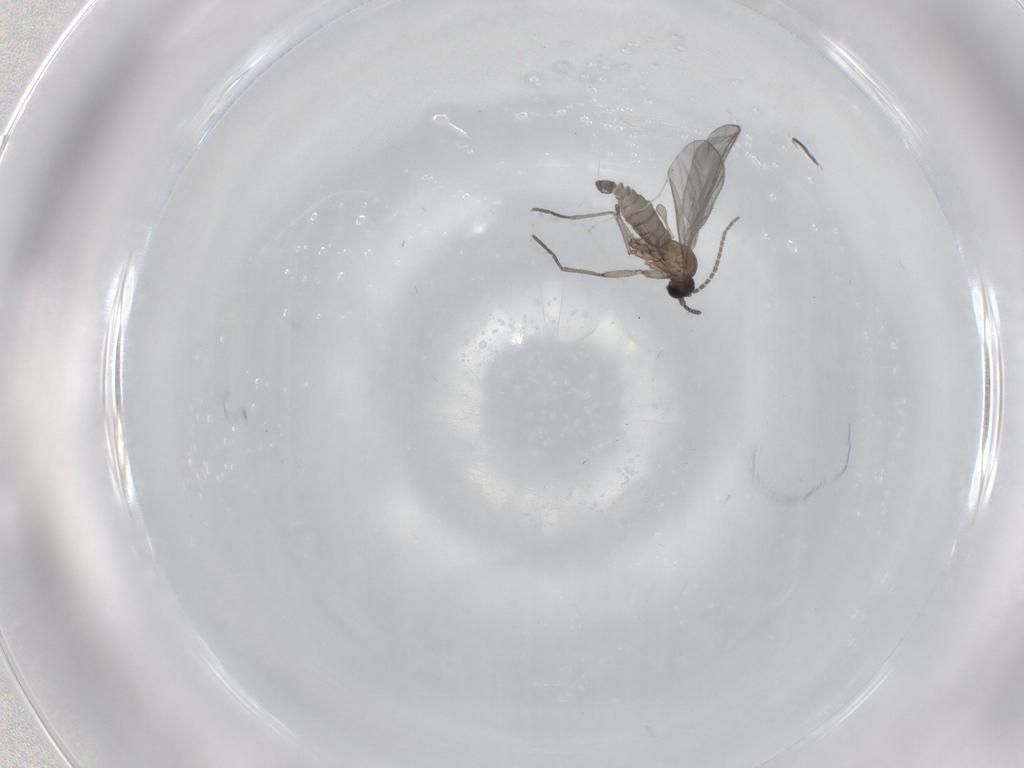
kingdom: Animalia
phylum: Arthropoda
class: Insecta
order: Diptera
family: Sciaridae
